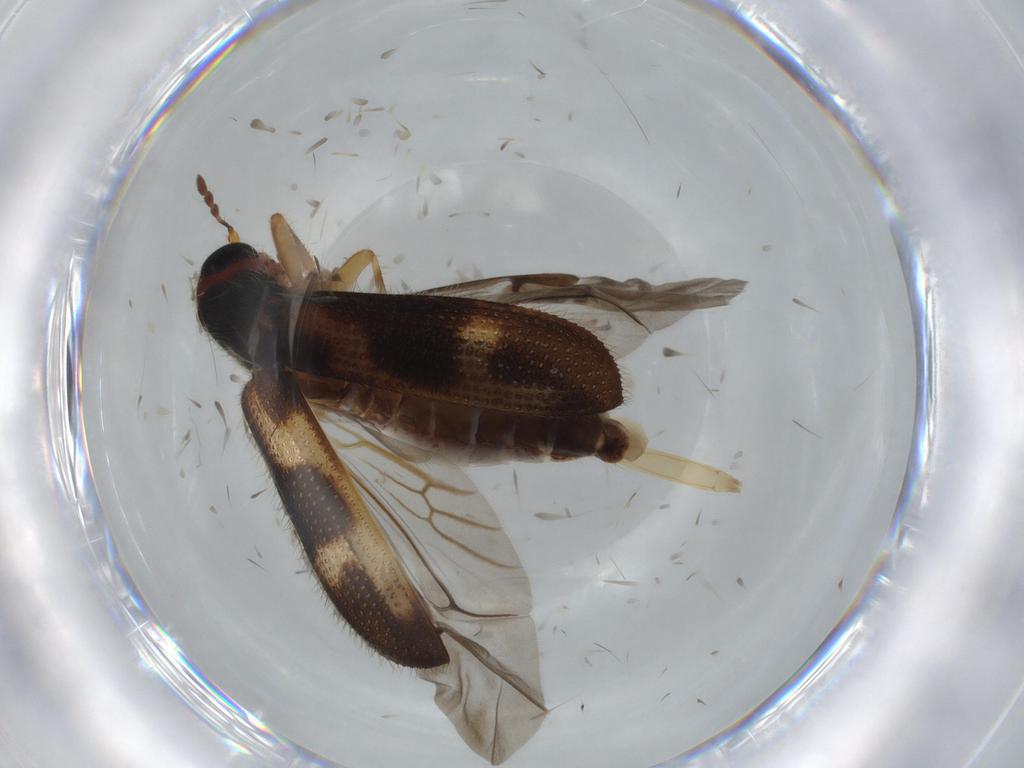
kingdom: Animalia
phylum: Arthropoda
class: Insecta
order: Coleoptera
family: Cleridae
